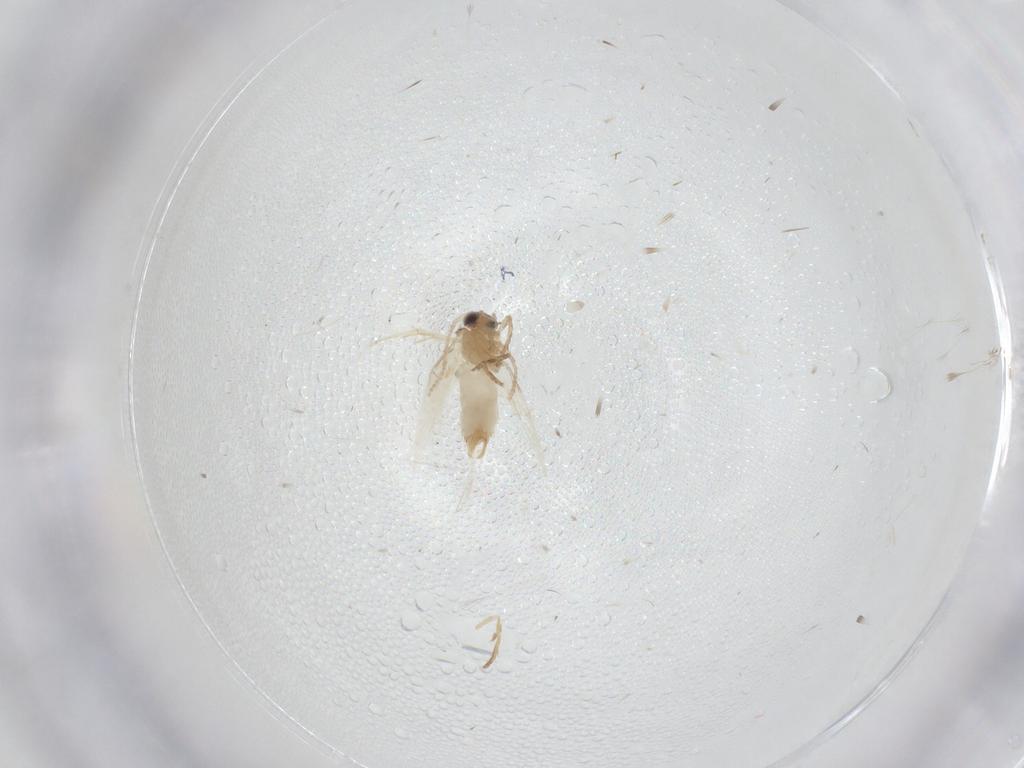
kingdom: Animalia
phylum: Arthropoda
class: Insecta
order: Lepidoptera
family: Nepticulidae
